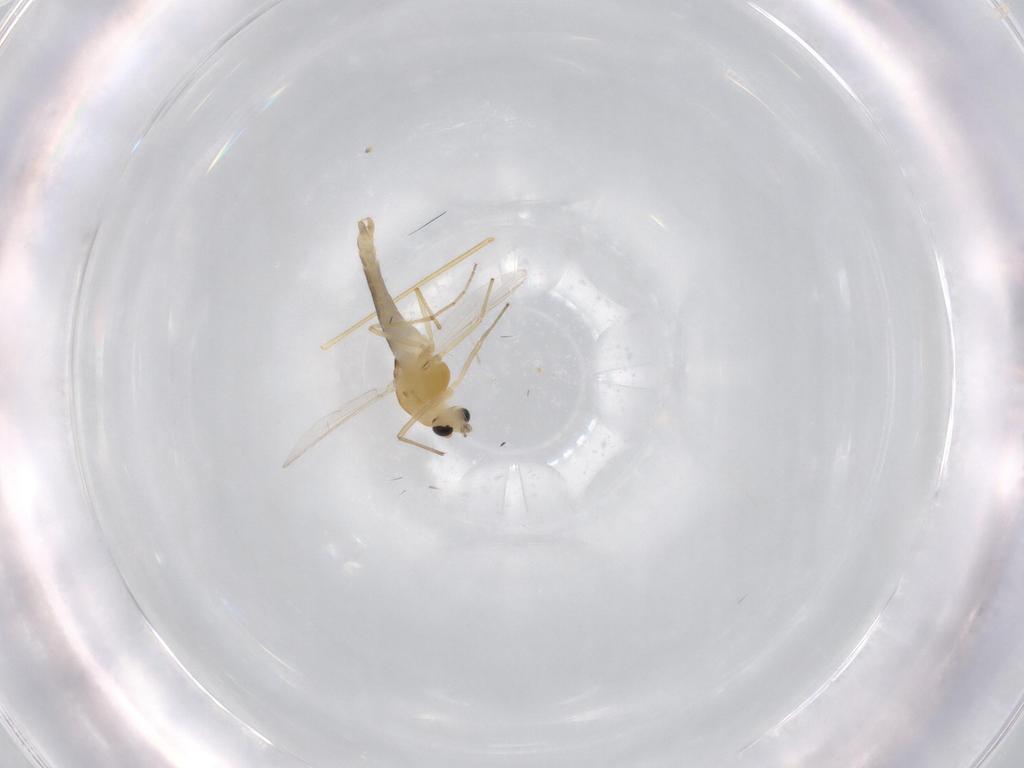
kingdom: Animalia
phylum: Arthropoda
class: Insecta
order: Diptera
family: Chironomidae
